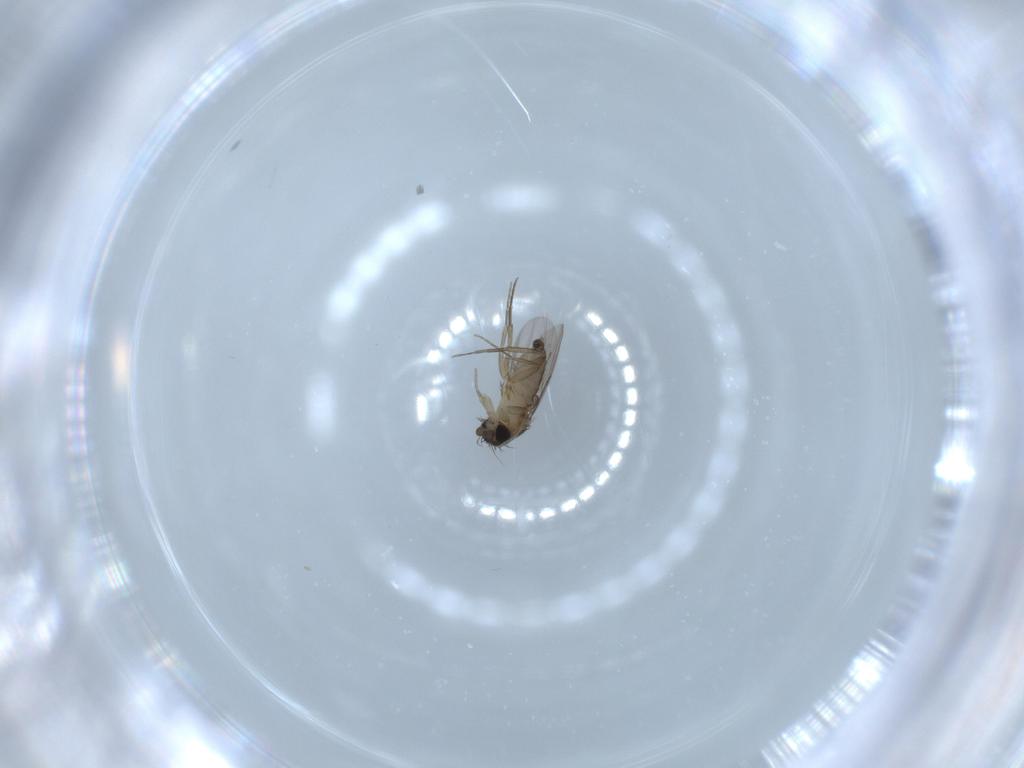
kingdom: Animalia
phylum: Arthropoda
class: Insecta
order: Diptera
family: Phoridae
